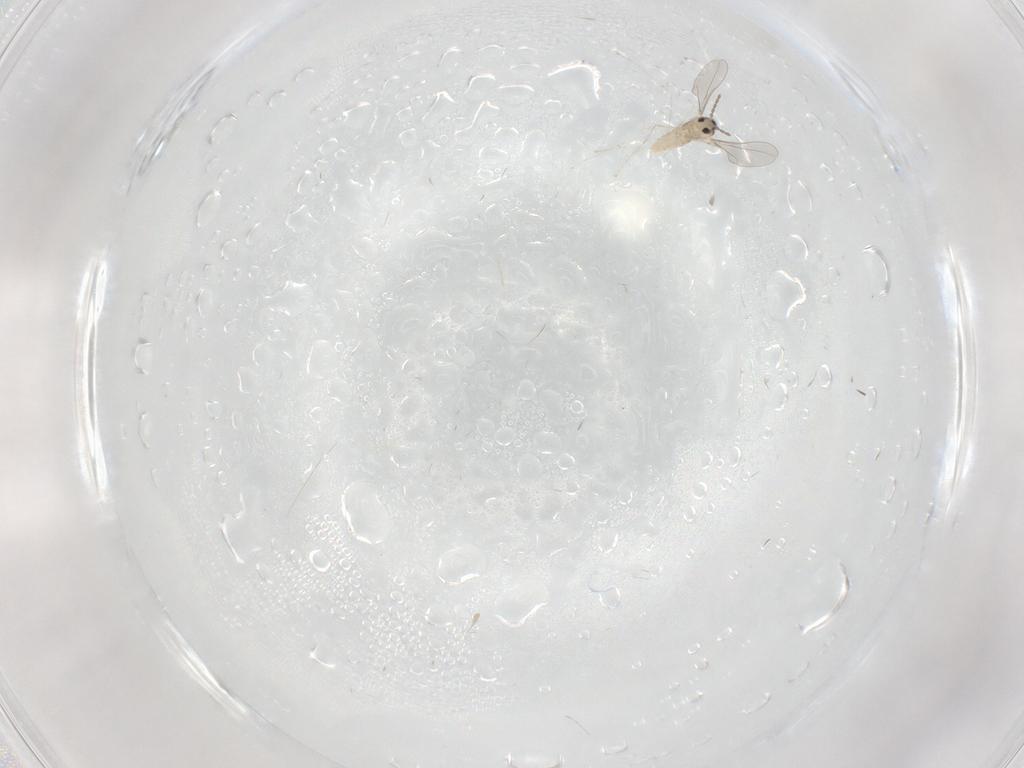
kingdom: Animalia
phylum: Arthropoda
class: Insecta
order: Diptera
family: Cecidomyiidae
